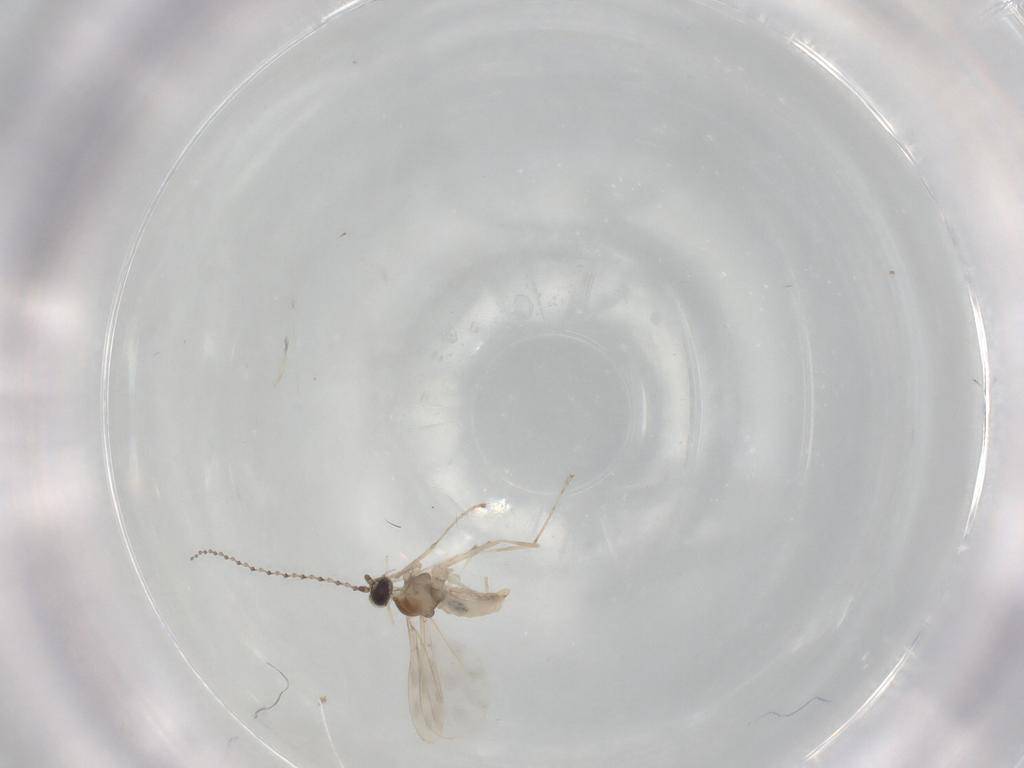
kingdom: Animalia
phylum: Arthropoda
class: Insecta
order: Diptera
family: Cecidomyiidae
